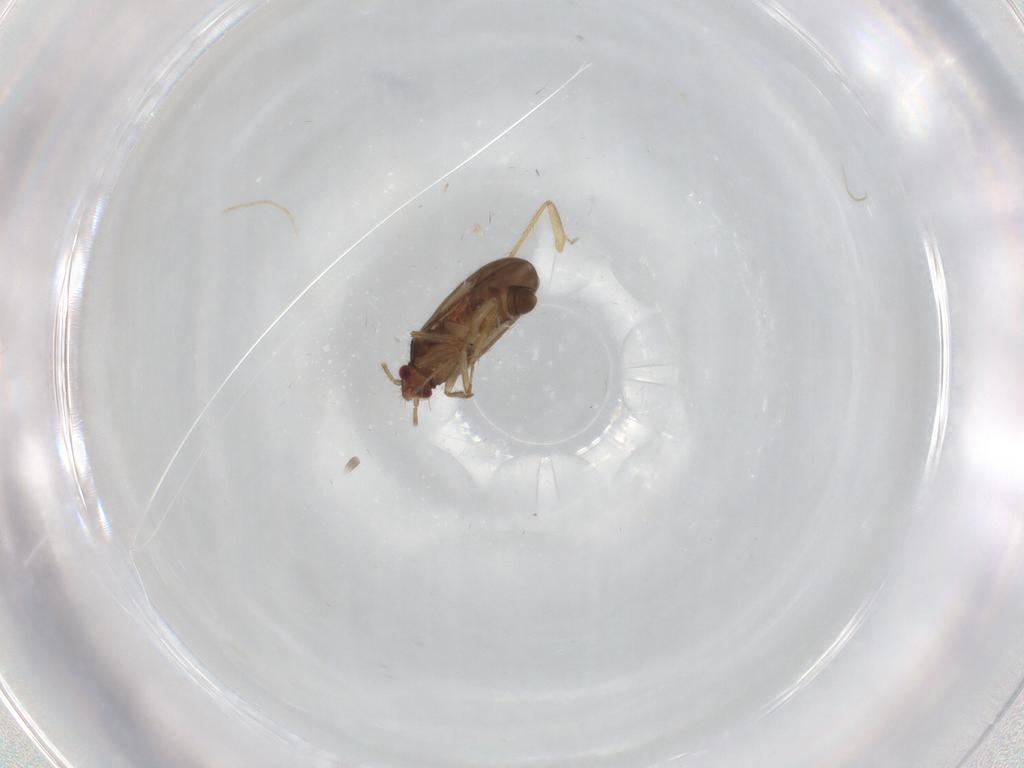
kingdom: Animalia
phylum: Arthropoda
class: Insecta
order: Hemiptera
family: Ceratocombidae
